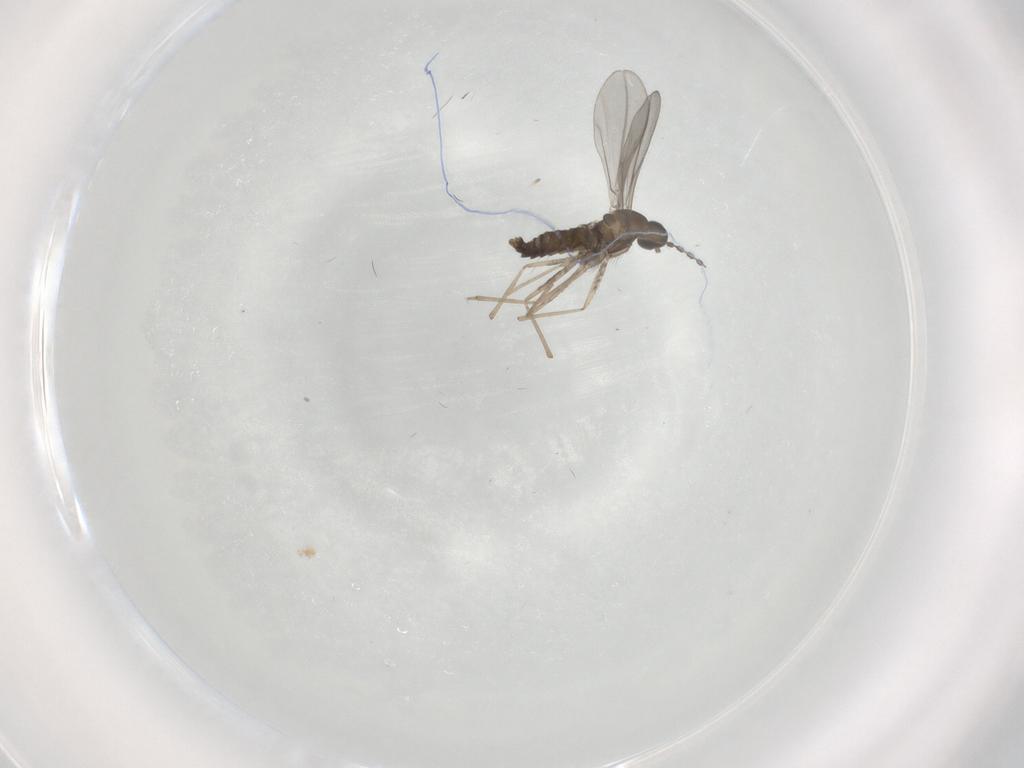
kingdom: Animalia
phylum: Arthropoda
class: Insecta
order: Diptera
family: Cecidomyiidae
